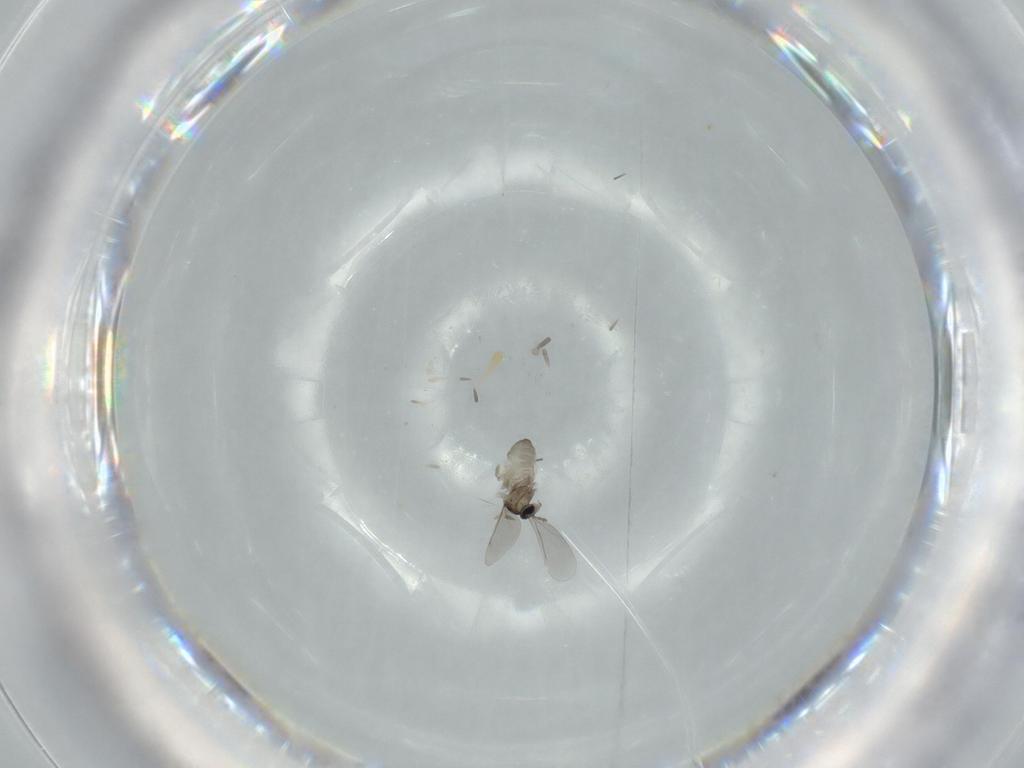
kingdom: Animalia
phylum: Arthropoda
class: Insecta
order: Diptera
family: Cecidomyiidae
